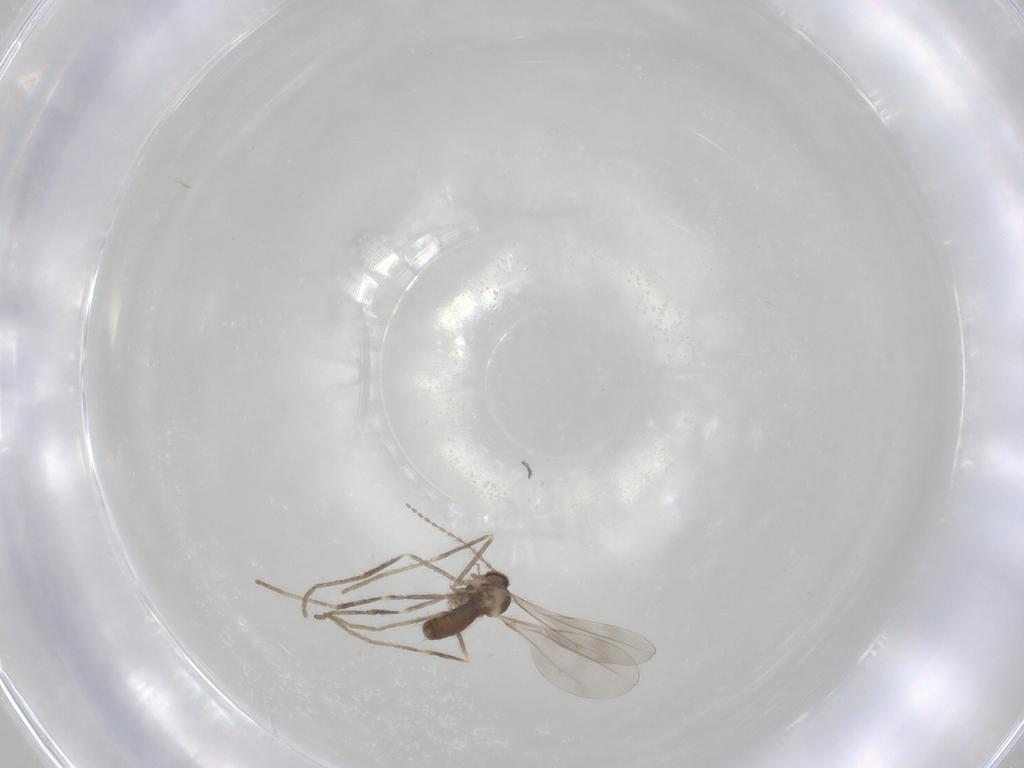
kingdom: Animalia
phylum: Arthropoda
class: Insecta
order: Diptera
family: Cecidomyiidae
